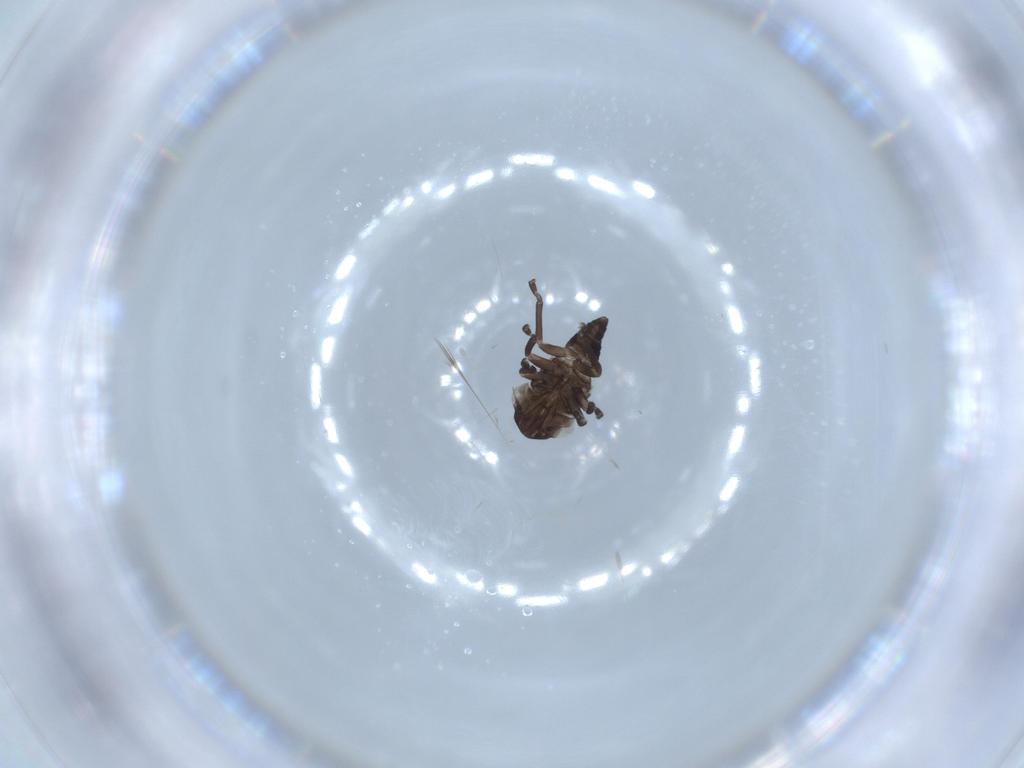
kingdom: Animalia
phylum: Arthropoda
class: Insecta
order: Hemiptera
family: Cicadellidae
